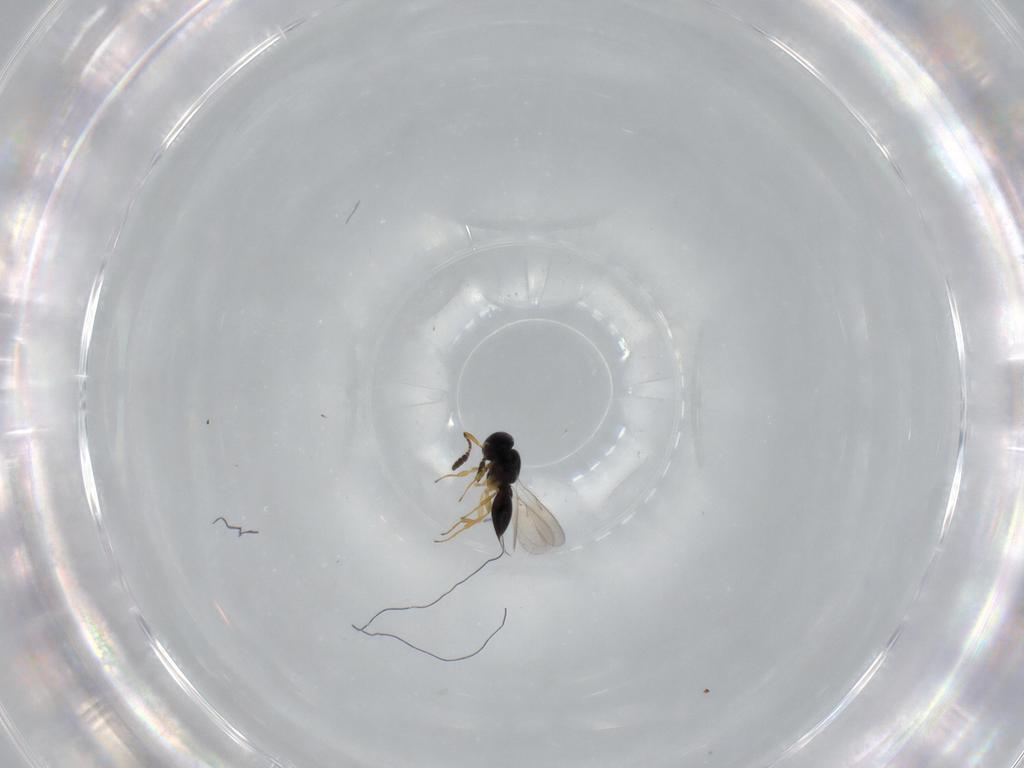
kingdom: Animalia
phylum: Arthropoda
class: Insecta
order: Hymenoptera
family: Scelionidae
